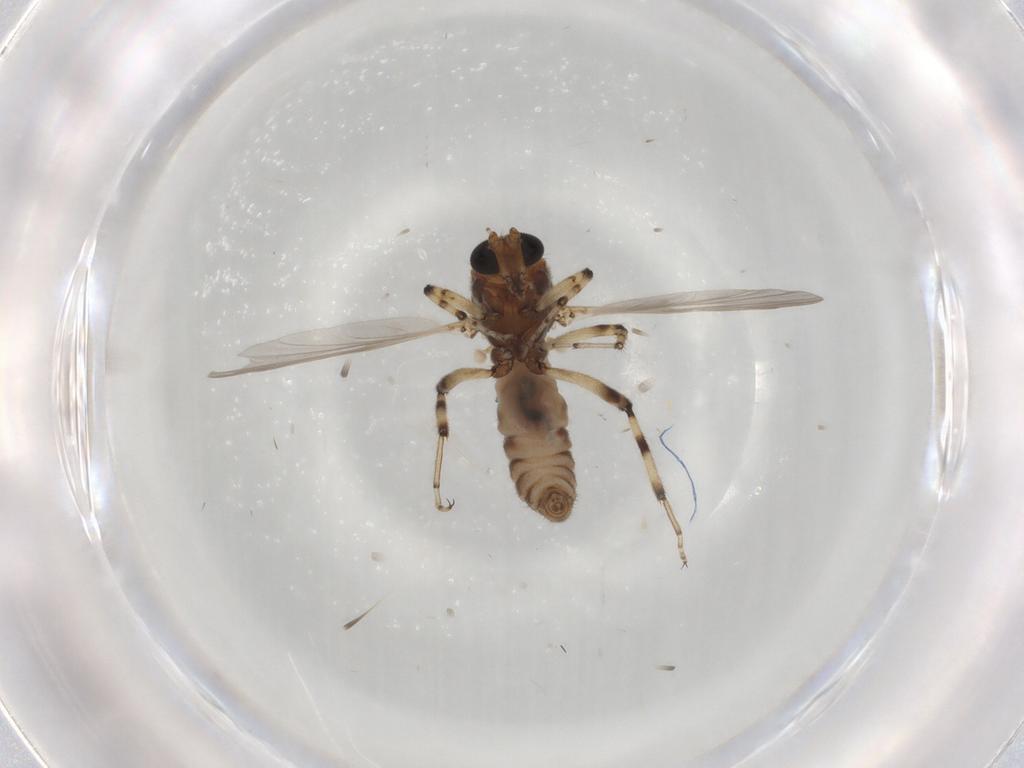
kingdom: Animalia
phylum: Arthropoda
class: Insecta
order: Diptera
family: Ceratopogonidae
